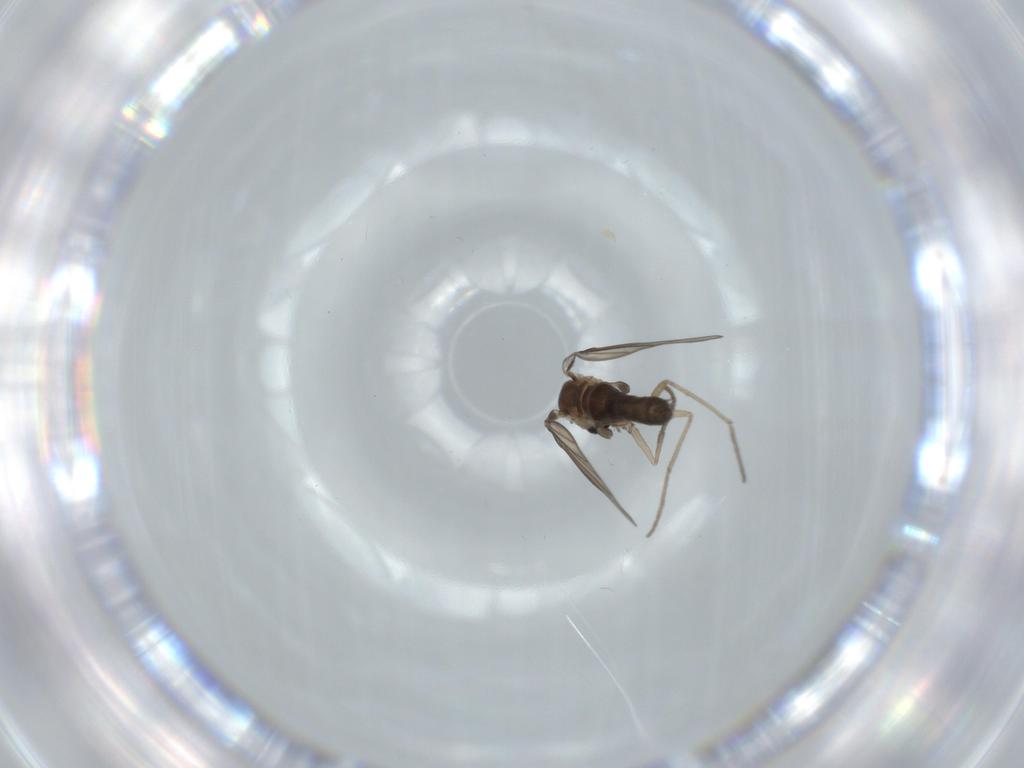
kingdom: Animalia
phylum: Arthropoda
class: Insecta
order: Diptera
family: Psychodidae
